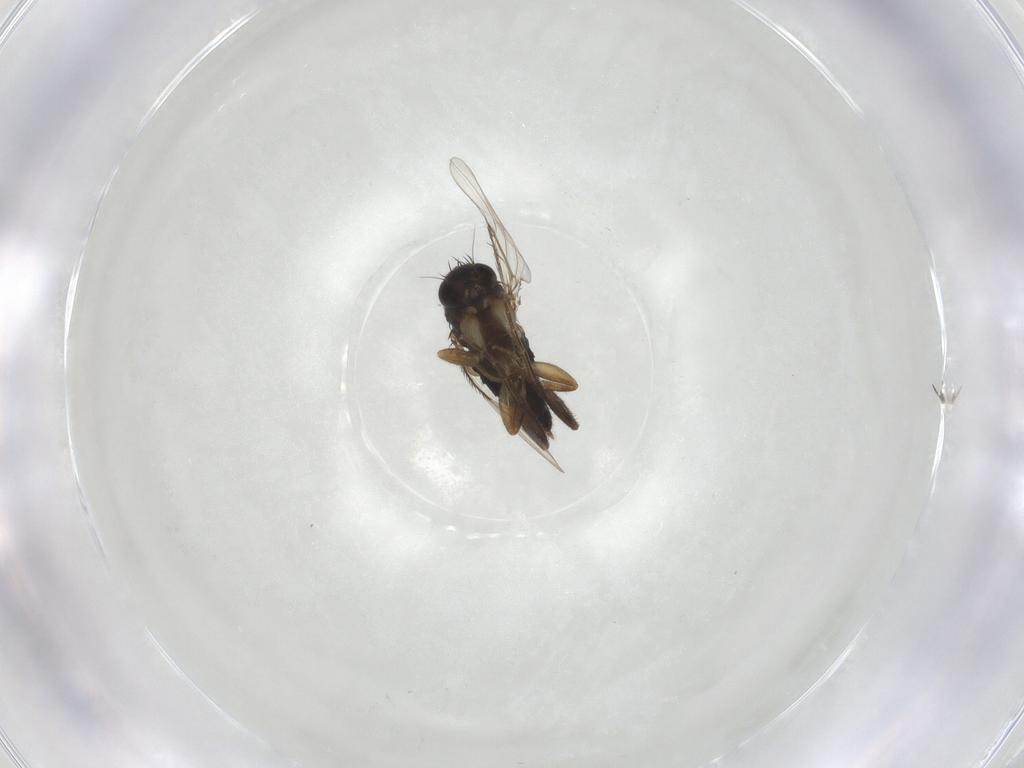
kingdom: Animalia
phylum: Arthropoda
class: Insecta
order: Diptera
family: Phoridae
